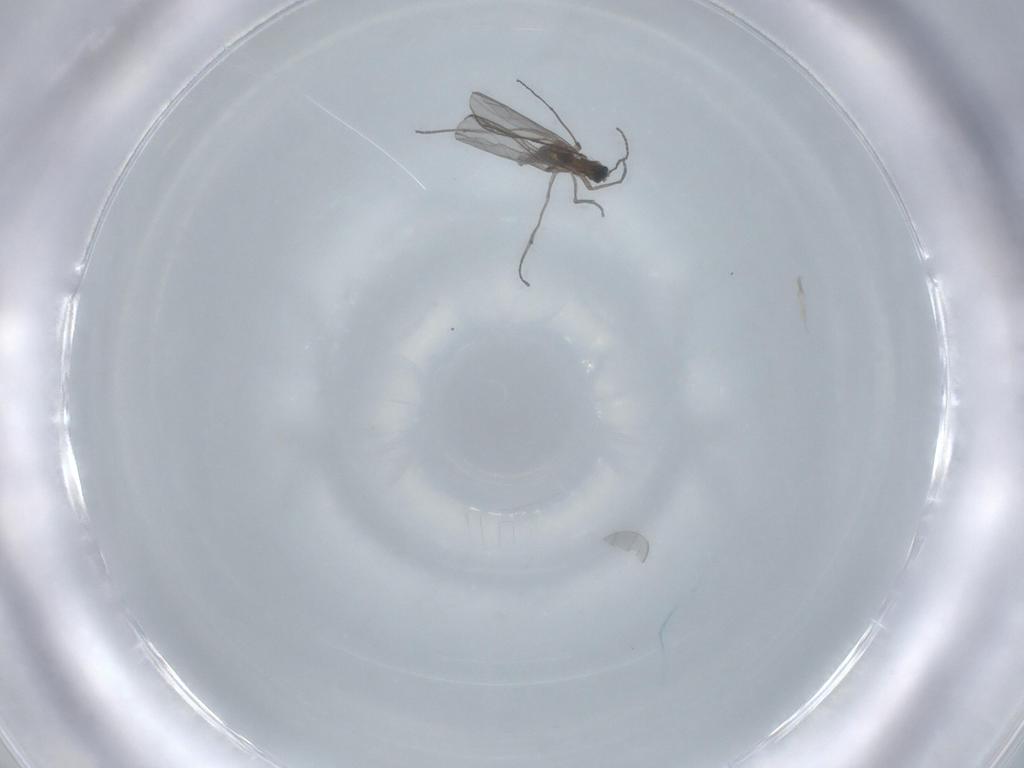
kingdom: Animalia
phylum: Arthropoda
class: Insecta
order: Diptera
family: Sciaridae
